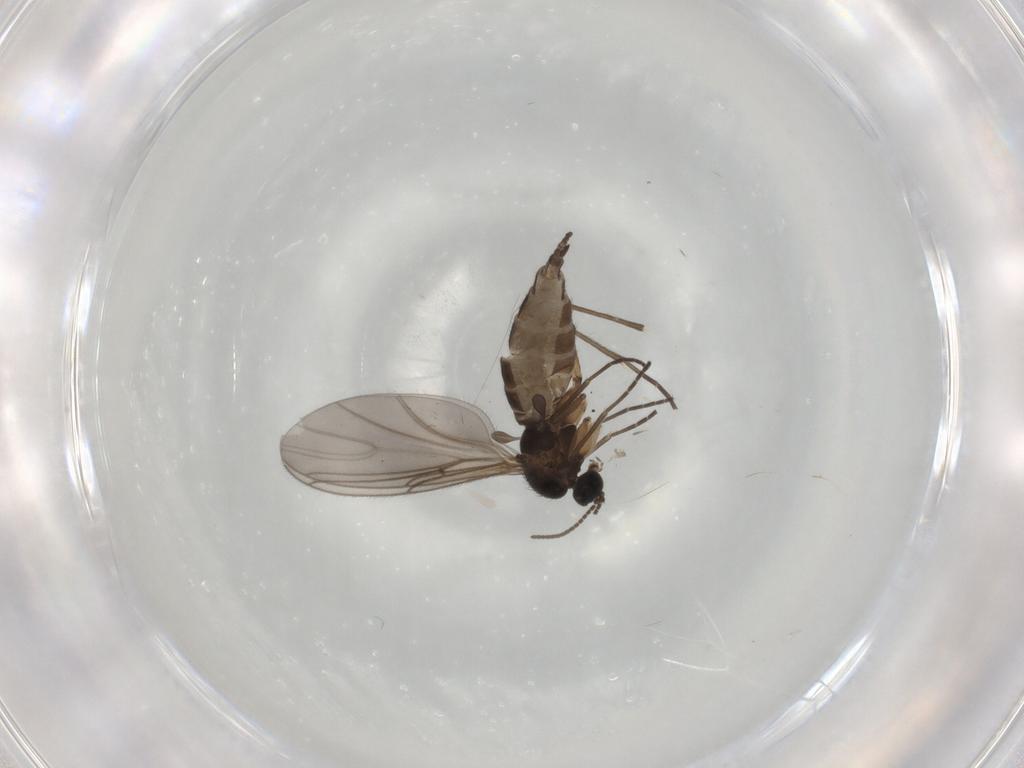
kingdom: Animalia
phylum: Arthropoda
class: Insecta
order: Diptera
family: Sciaridae
